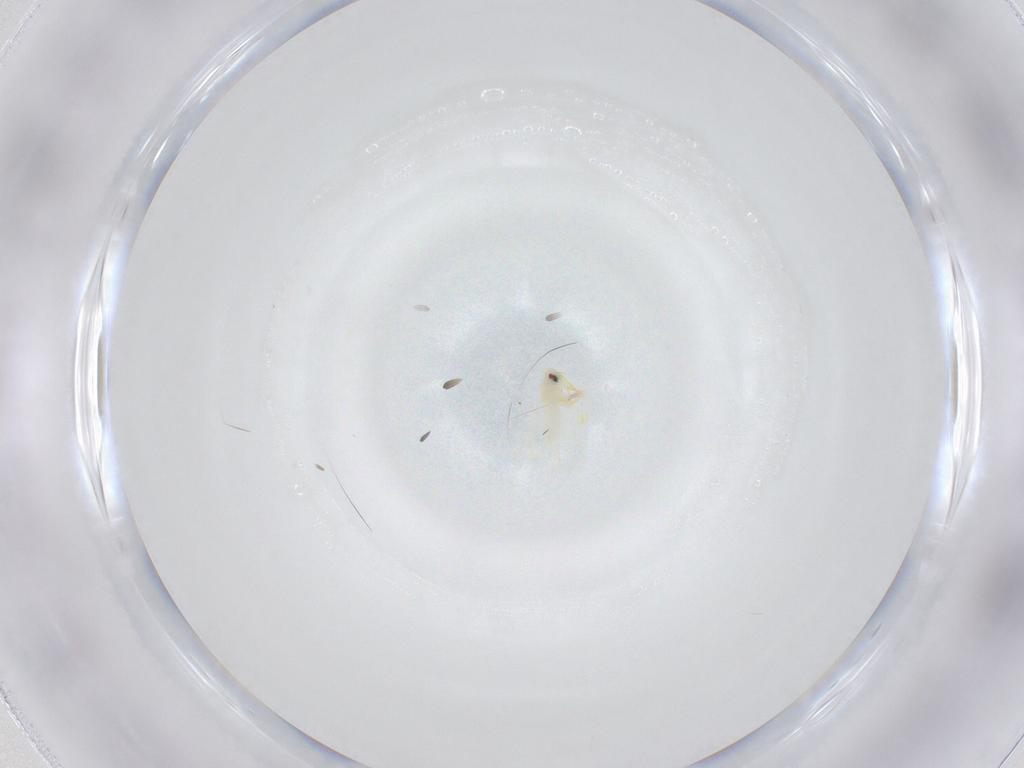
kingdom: Animalia
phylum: Arthropoda
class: Insecta
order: Hemiptera
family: Aleyrodidae
